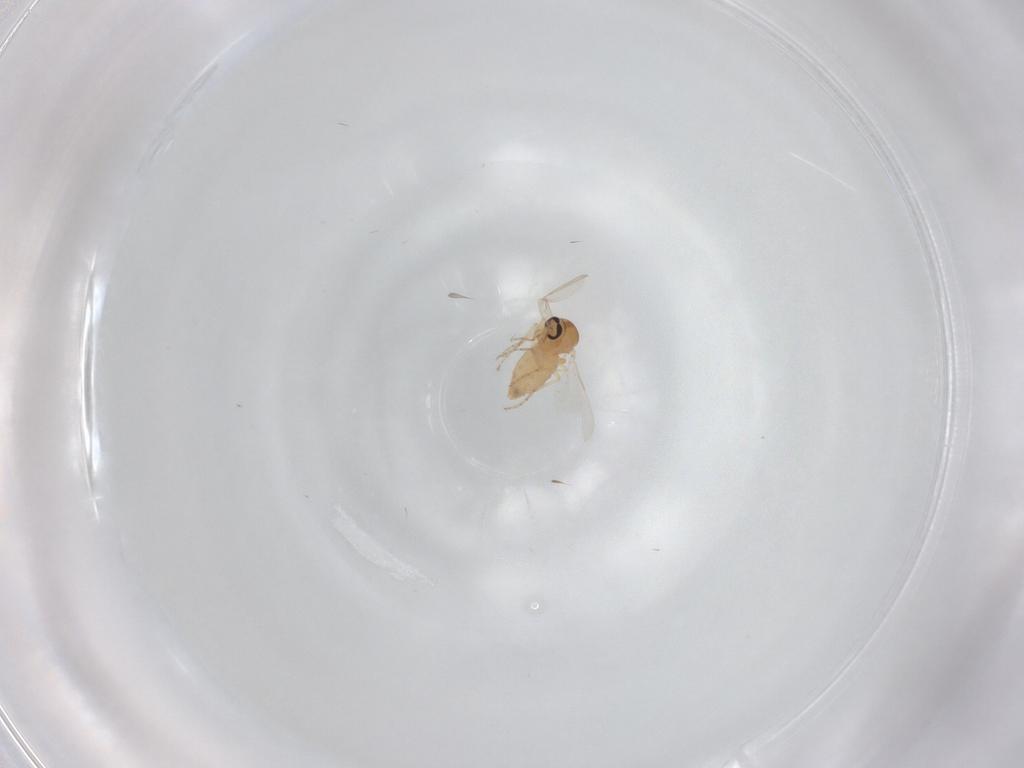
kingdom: Animalia
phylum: Arthropoda
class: Insecta
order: Diptera
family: Ceratopogonidae
